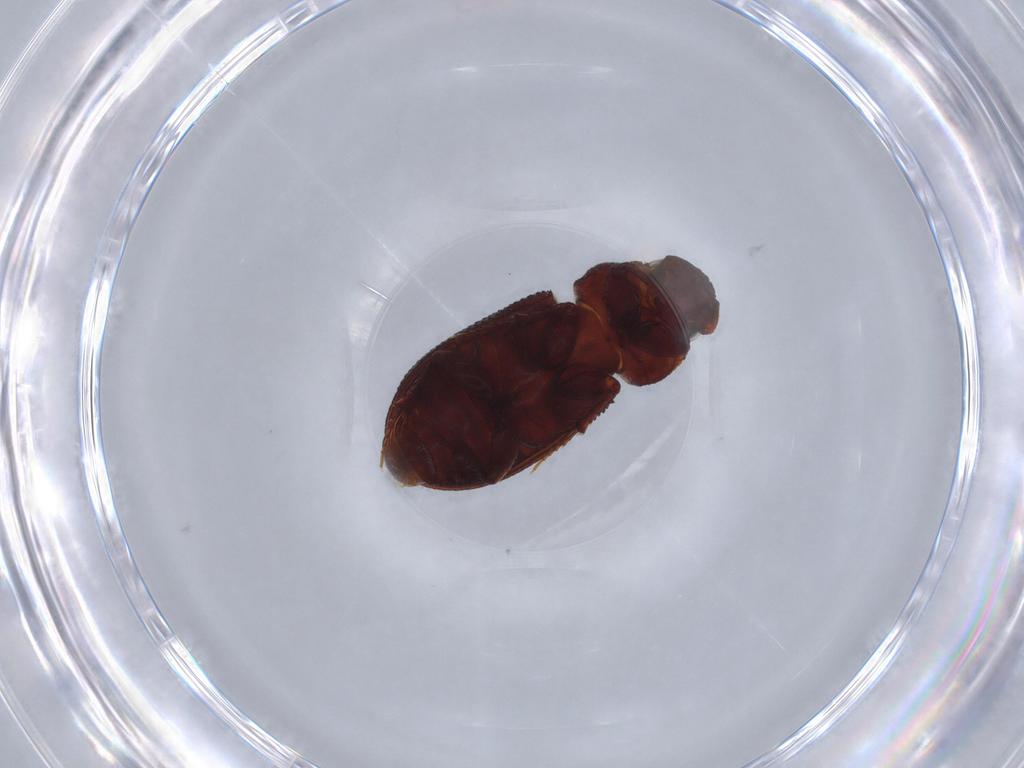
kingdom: Animalia
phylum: Arthropoda
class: Insecta
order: Coleoptera
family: Scarabaeidae
